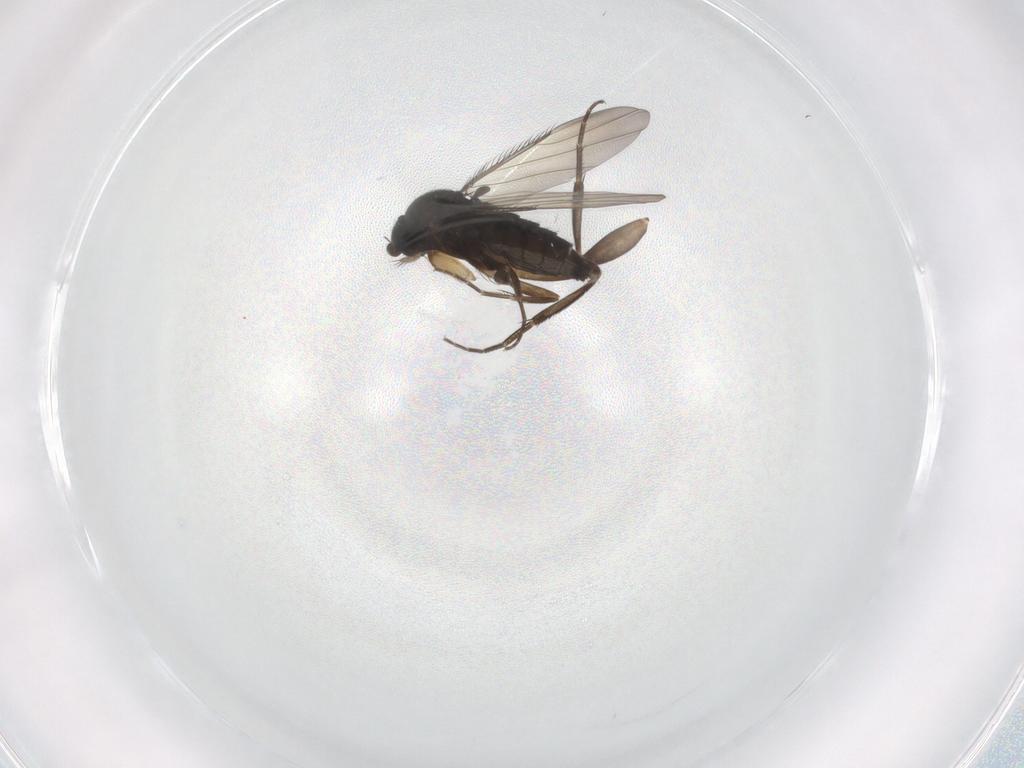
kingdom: Animalia
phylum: Arthropoda
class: Insecta
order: Diptera
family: Phoridae
